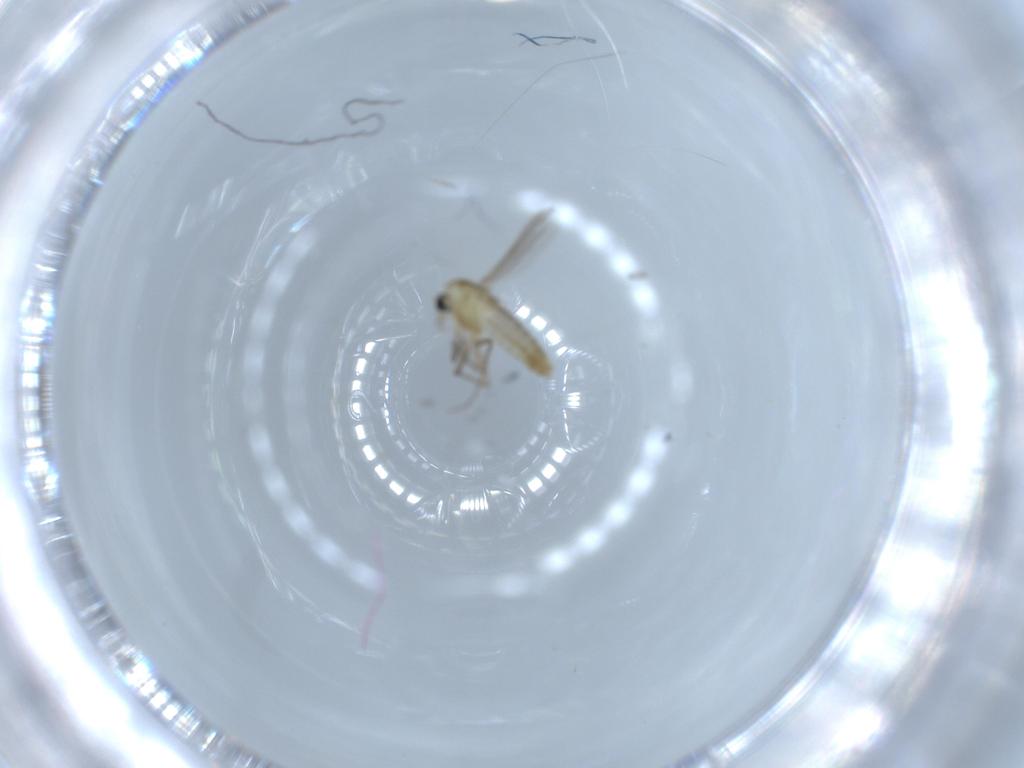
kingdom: Animalia
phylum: Arthropoda
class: Insecta
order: Diptera
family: Chironomidae
